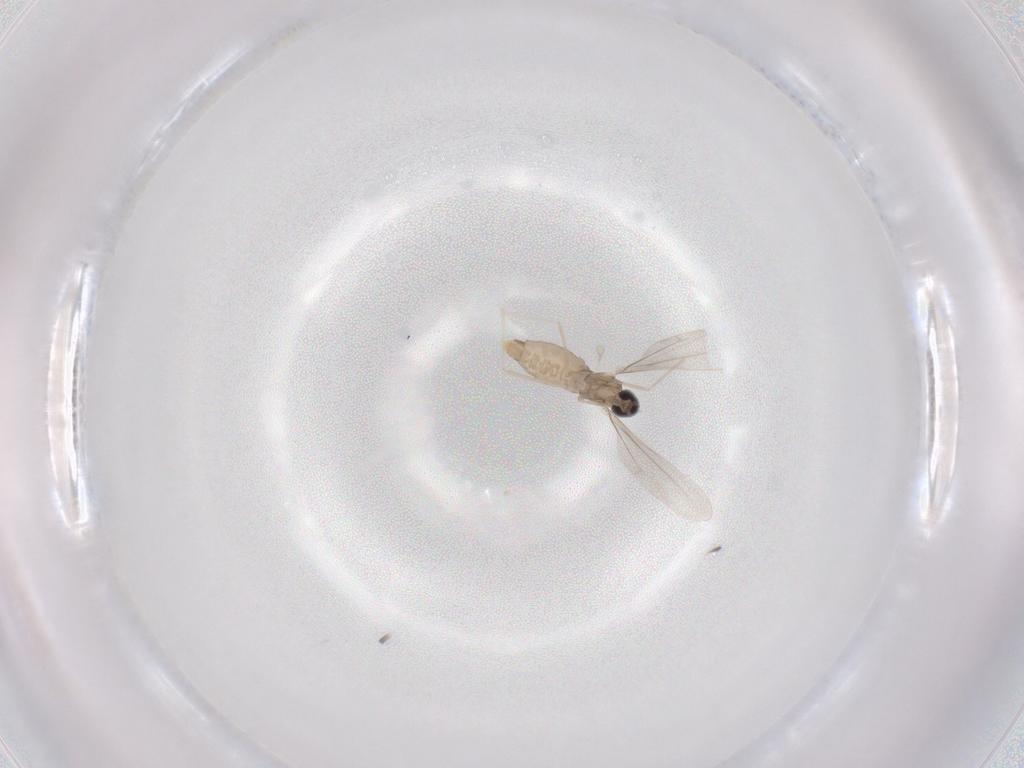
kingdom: Animalia
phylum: Arthropoda
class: Insecta
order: Diptera
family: Cecidomyiidae
